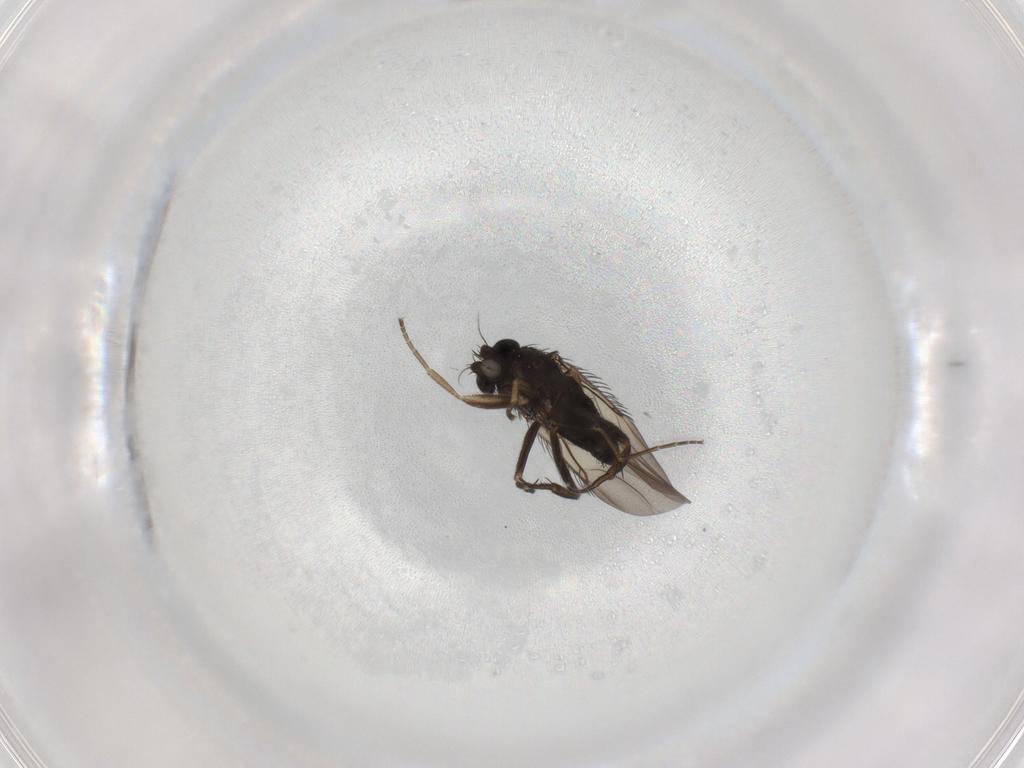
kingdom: Animalia
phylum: Arthropoda
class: Insecta
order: Diptera
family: Phoridae
